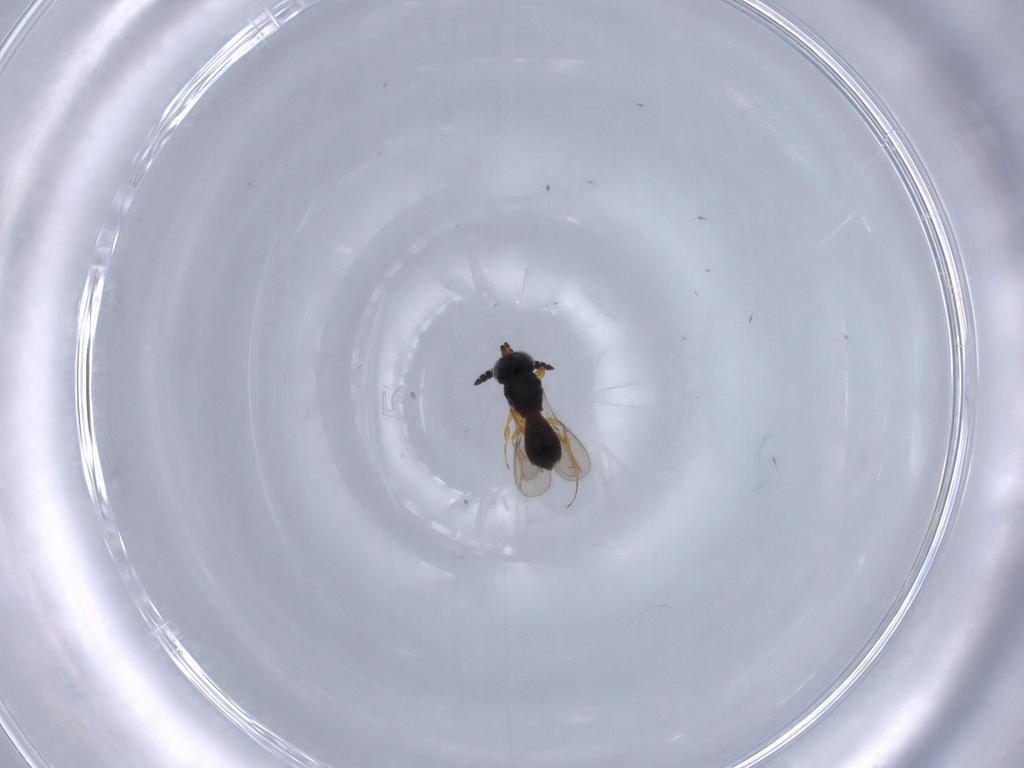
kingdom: Animalia
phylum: Arthropoda
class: Insecta
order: Hymenoptera
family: Scelionidae
